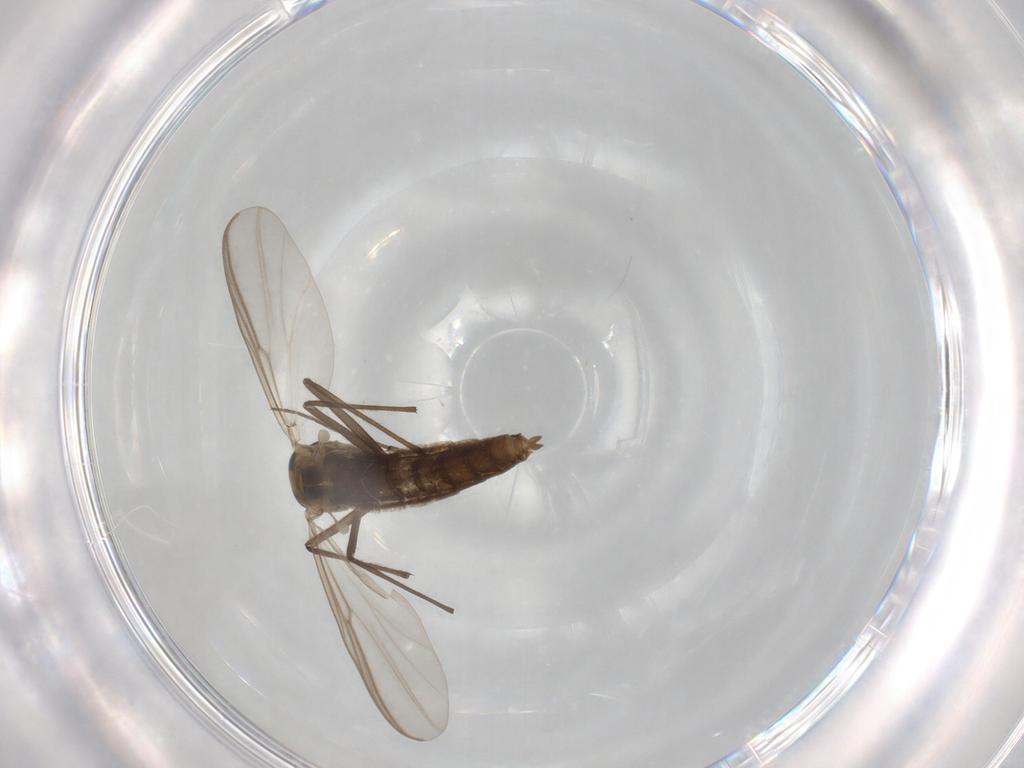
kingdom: Animalia
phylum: Arthropoda
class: Insecta
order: Diptera
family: Chironomidae
